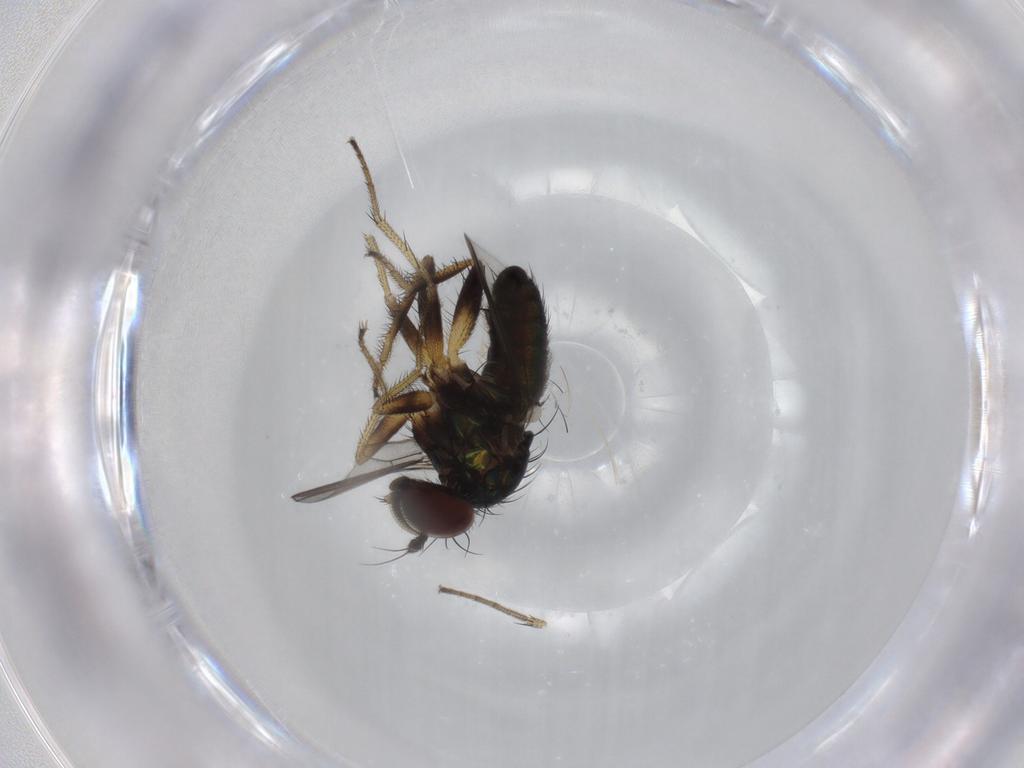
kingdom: Animalia
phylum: Arthropoda
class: Insecta
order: Diptera
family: Dolichopodidae
